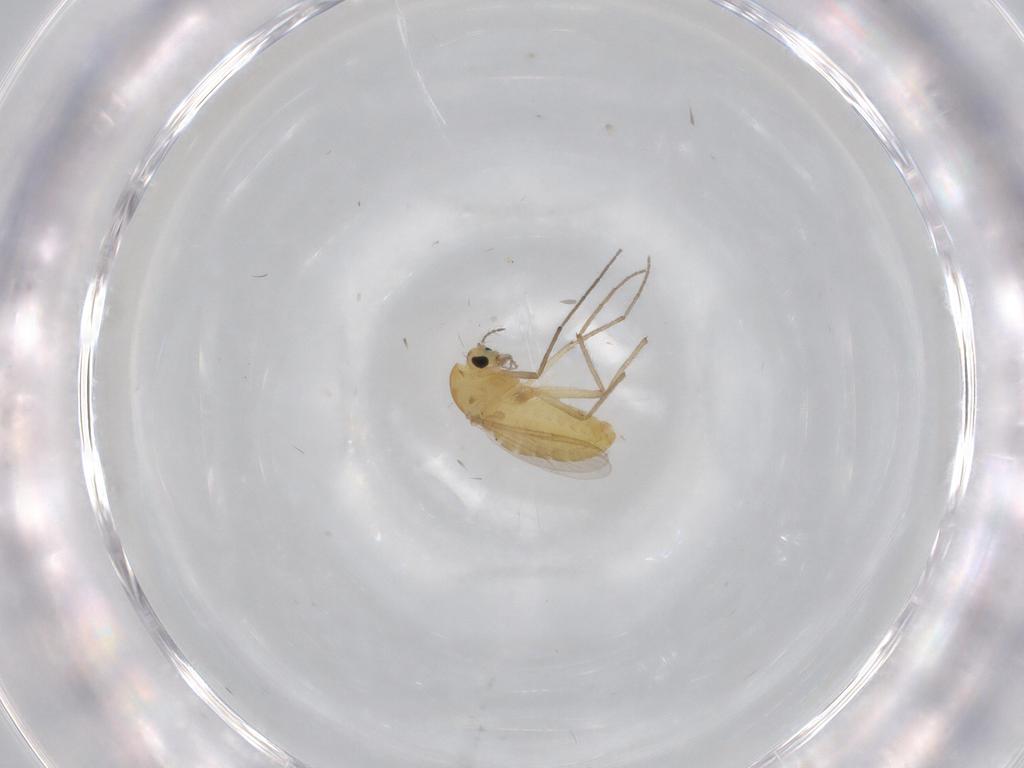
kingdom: Animalia
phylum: Arthropoda
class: Insecta
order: Diptera
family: Chironomidae
